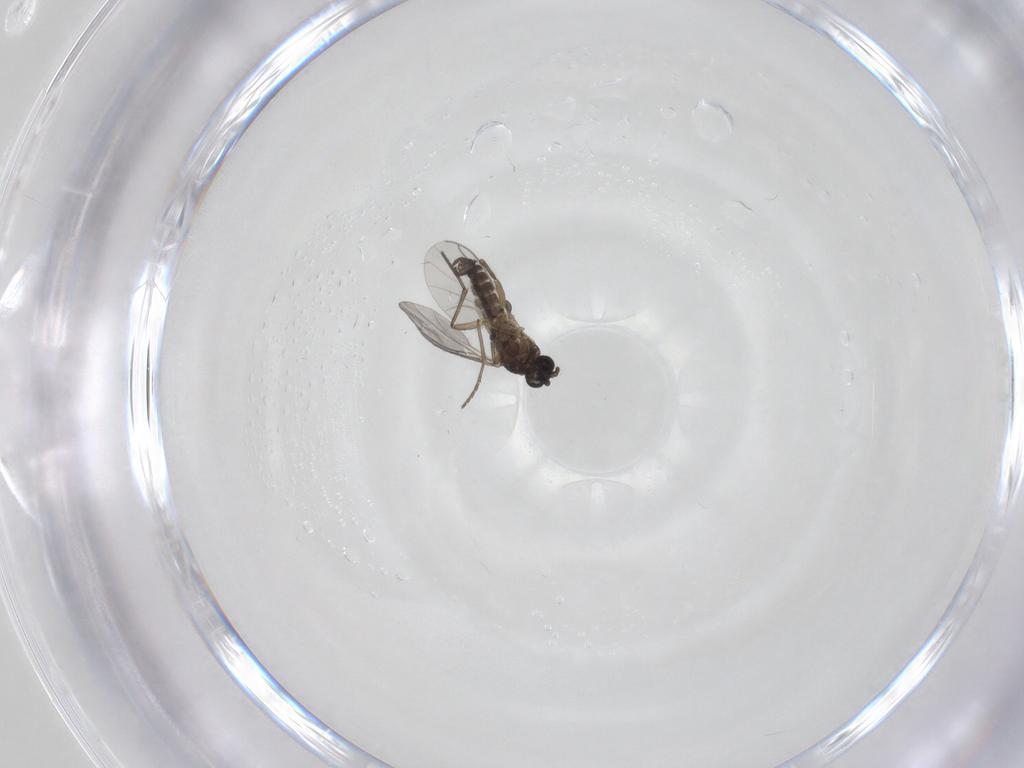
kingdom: Animalia
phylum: Arthropoda
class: Insecta
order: Diptera
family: Sciaridae
